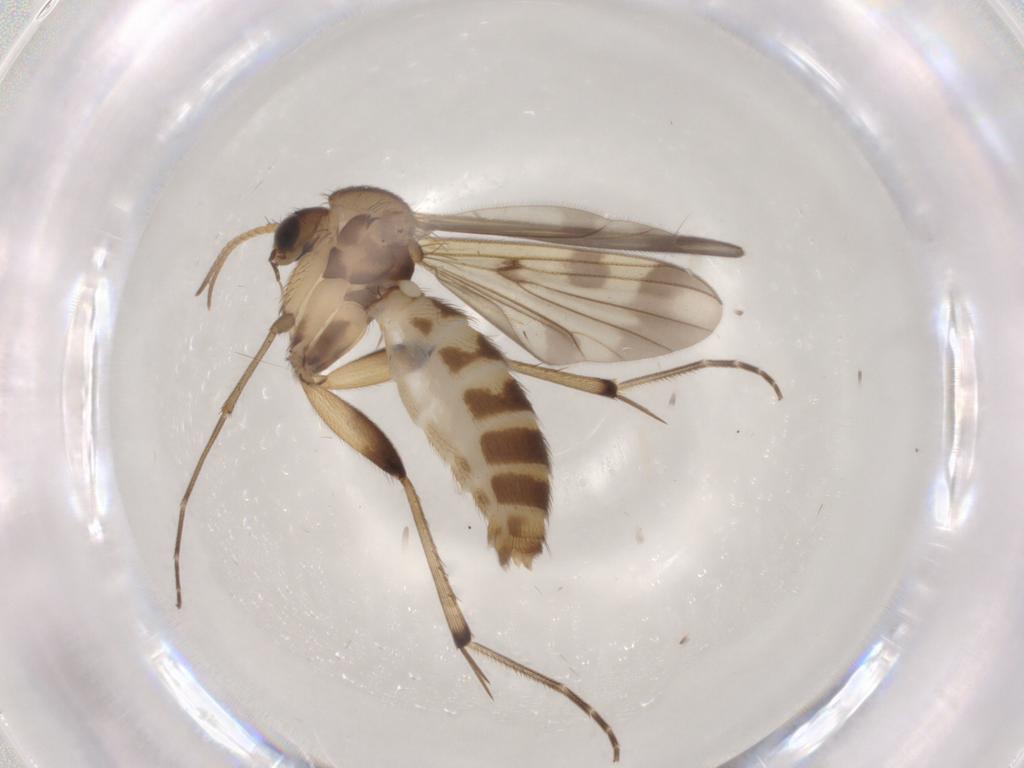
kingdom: Animalia
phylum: Arthropoda
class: Insecta
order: Diptera
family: Mycetophilidae
